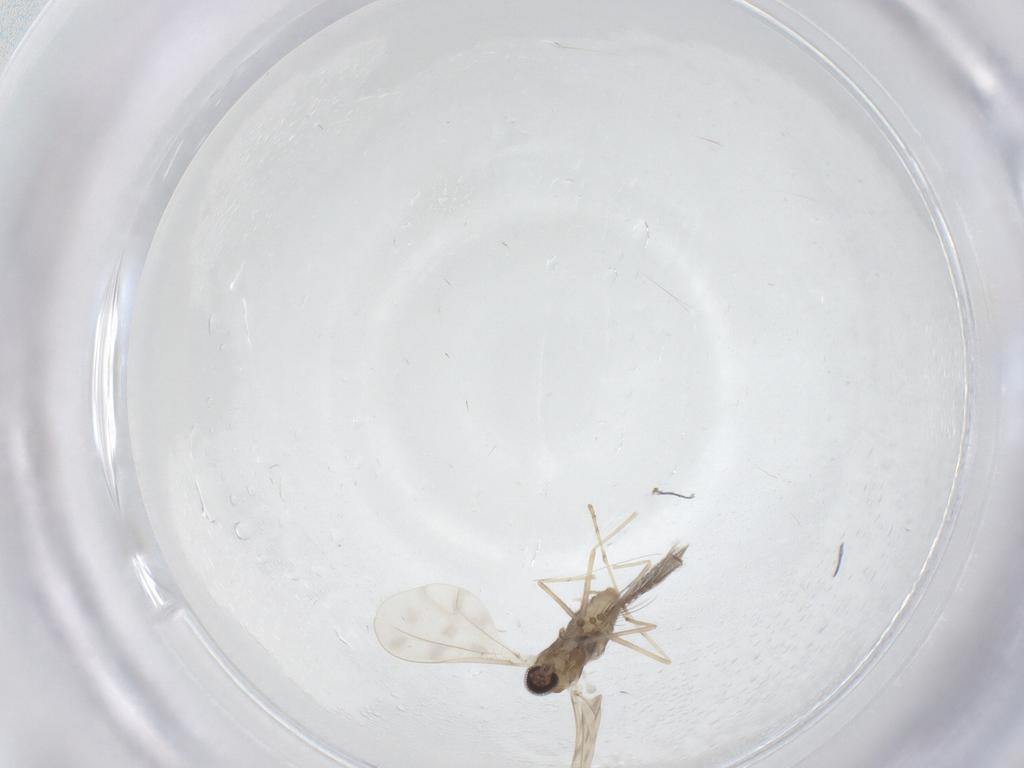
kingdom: Animalia
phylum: Arthropoda
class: Insecta
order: Diptera
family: Cecidomyiidae
